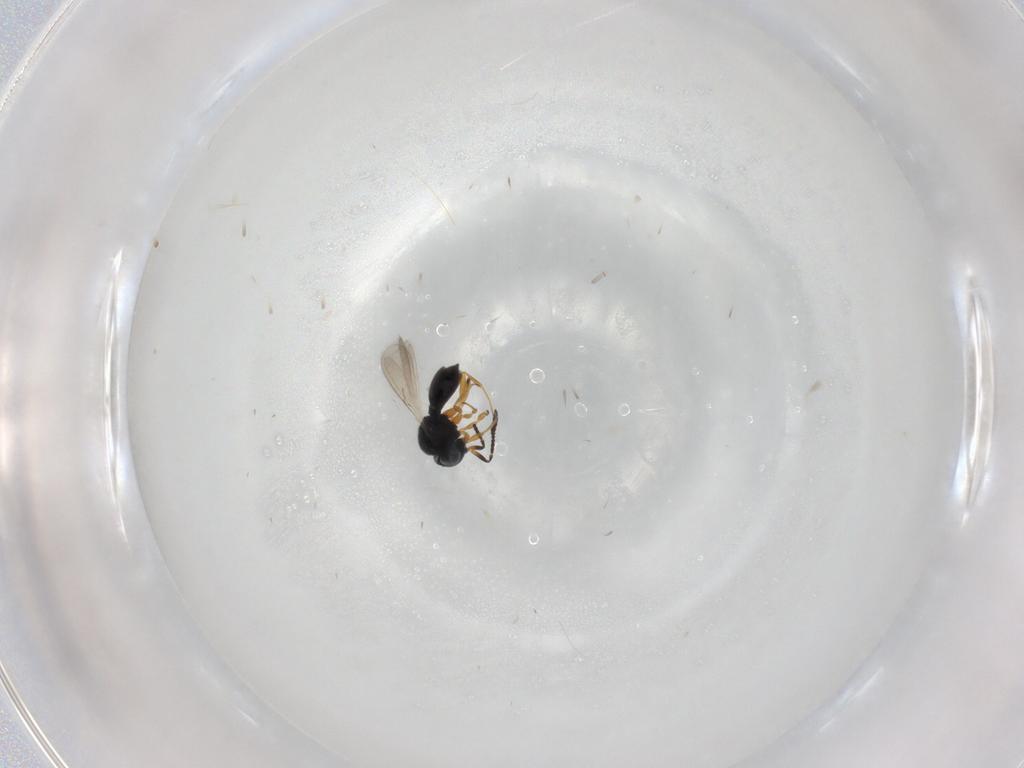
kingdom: Animalia
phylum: Arthropoda
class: Insecta
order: Hymenoptera
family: Scelionidae
